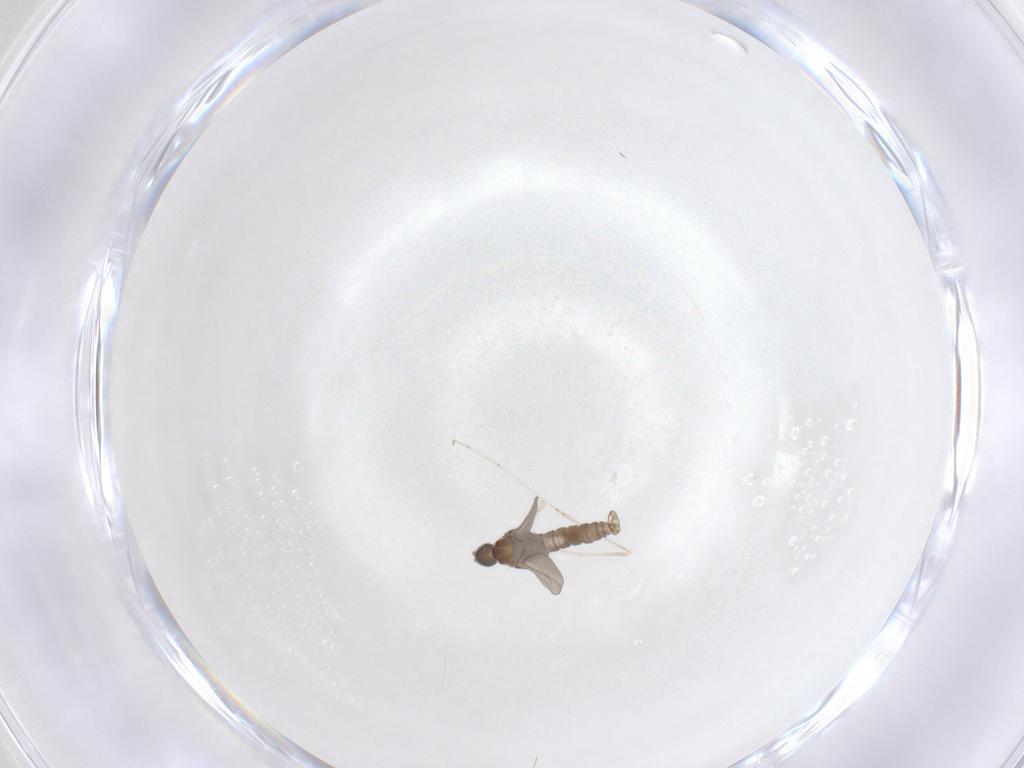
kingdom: Animalia
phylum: Arthropoda
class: Insecta
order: Diptera
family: Cecidomyiidae
